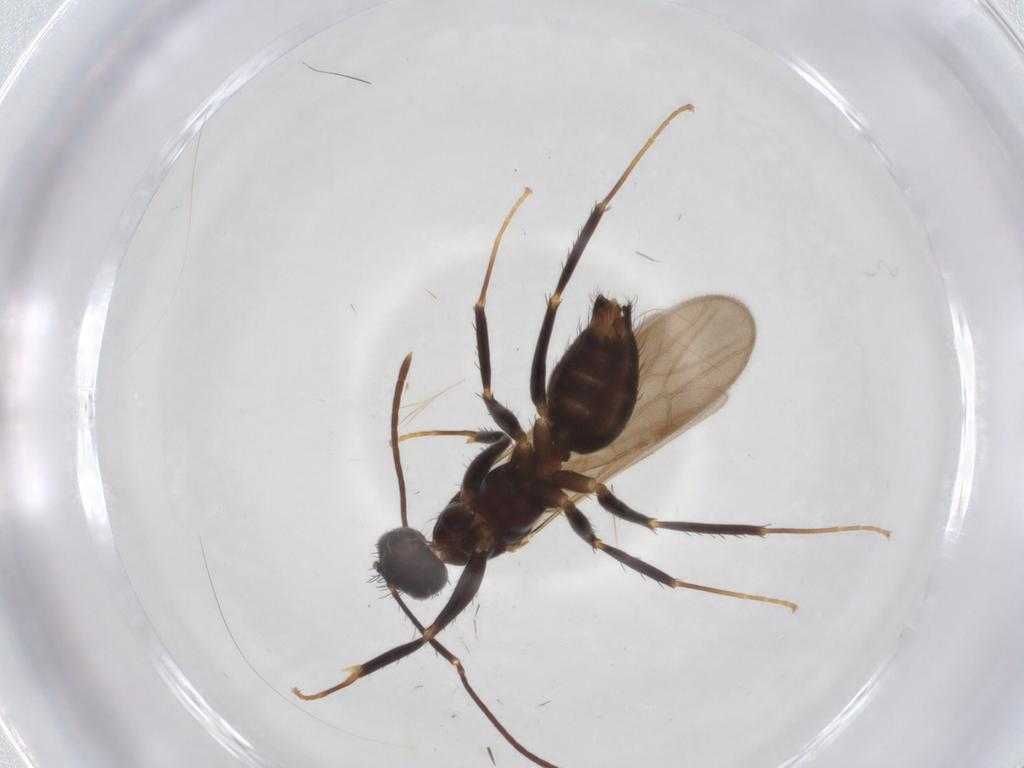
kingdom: Animalia
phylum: Arthropoda
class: Insecta
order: Hymenoptera
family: Formicidae
